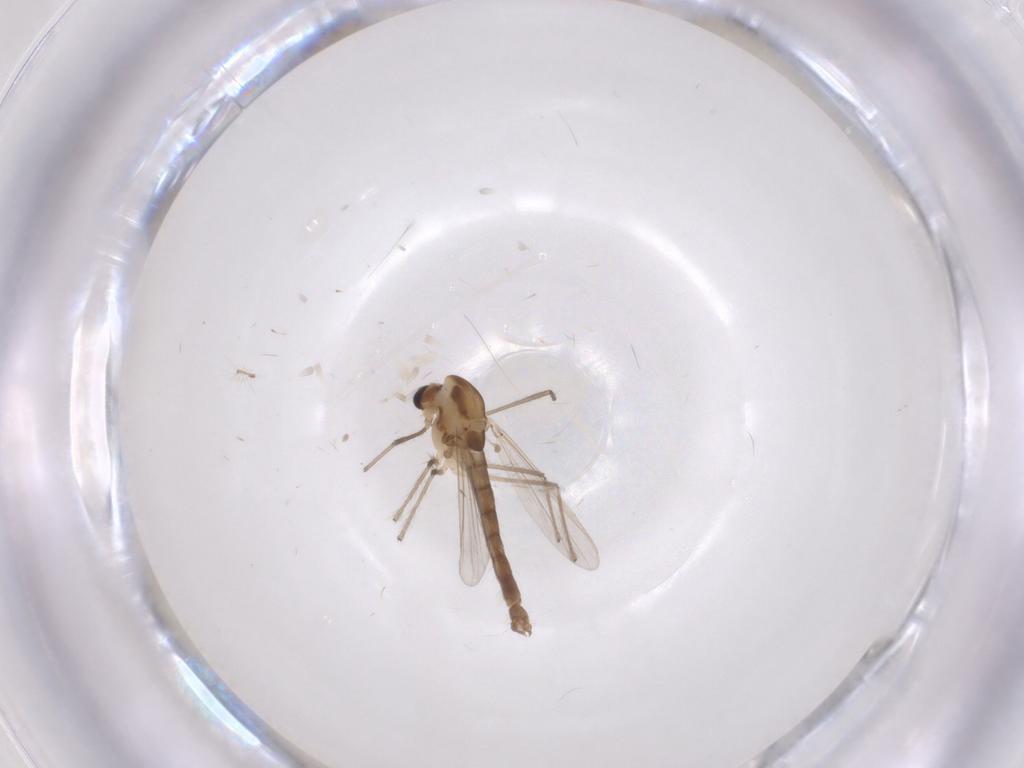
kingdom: Animalia
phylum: Arthropoda
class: Insecta
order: Diptera
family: Chironomidae
